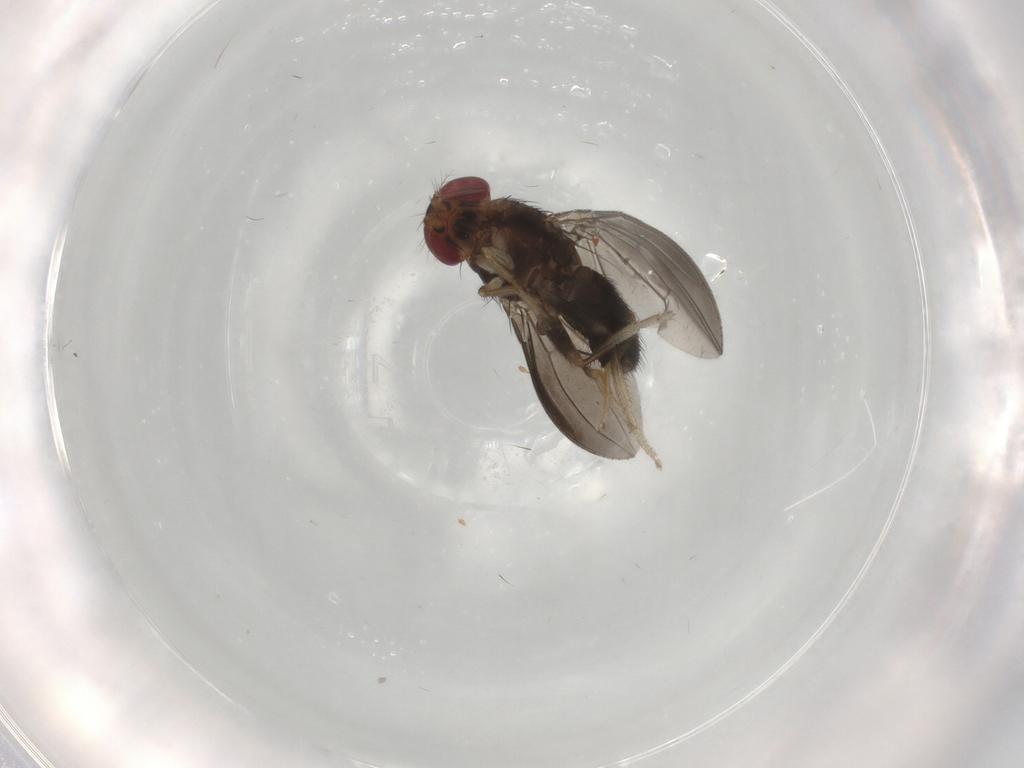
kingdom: Animalia
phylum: Arthropoda
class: Insecta
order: Diptera
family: Drosophilidae
